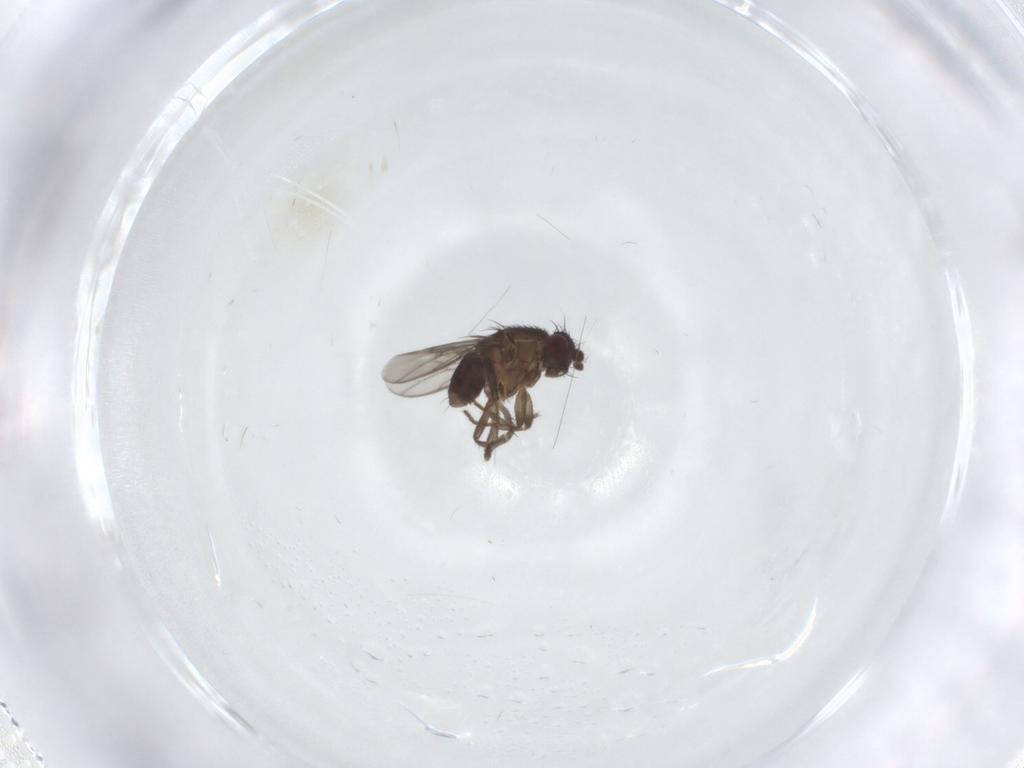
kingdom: Animalia
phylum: Arthropoda
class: Insecta
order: Diptera
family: Sphaeroceridae
